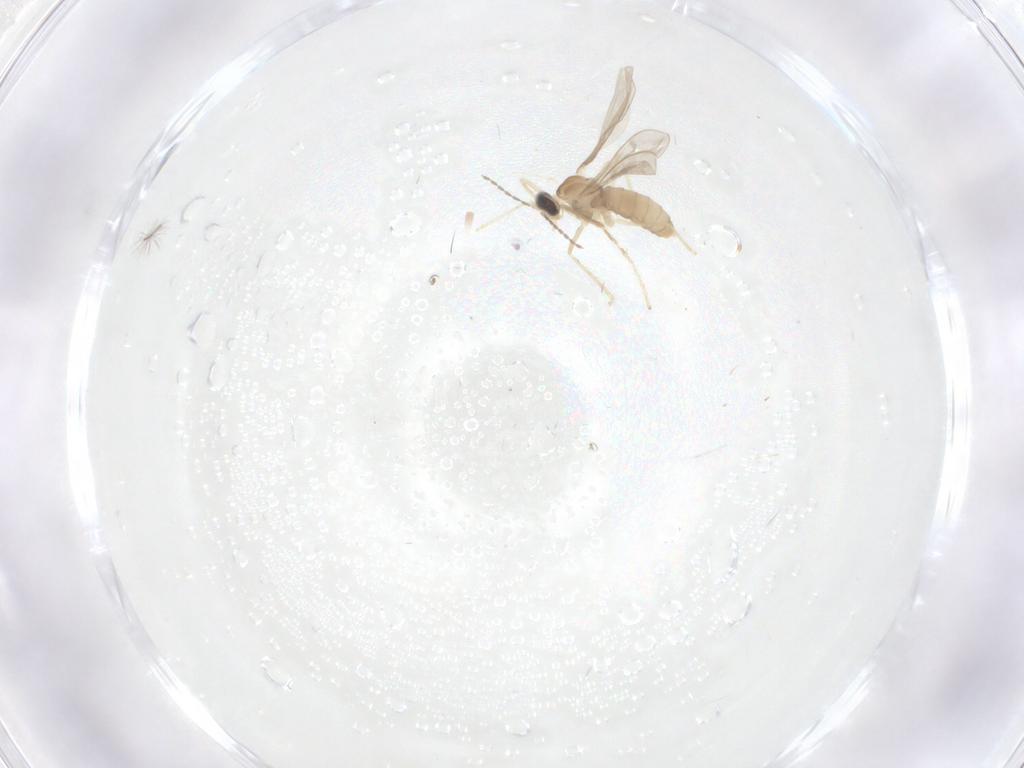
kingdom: Animalia
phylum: Arthropoda
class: Insecta
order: Diptera
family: Sciaridae
